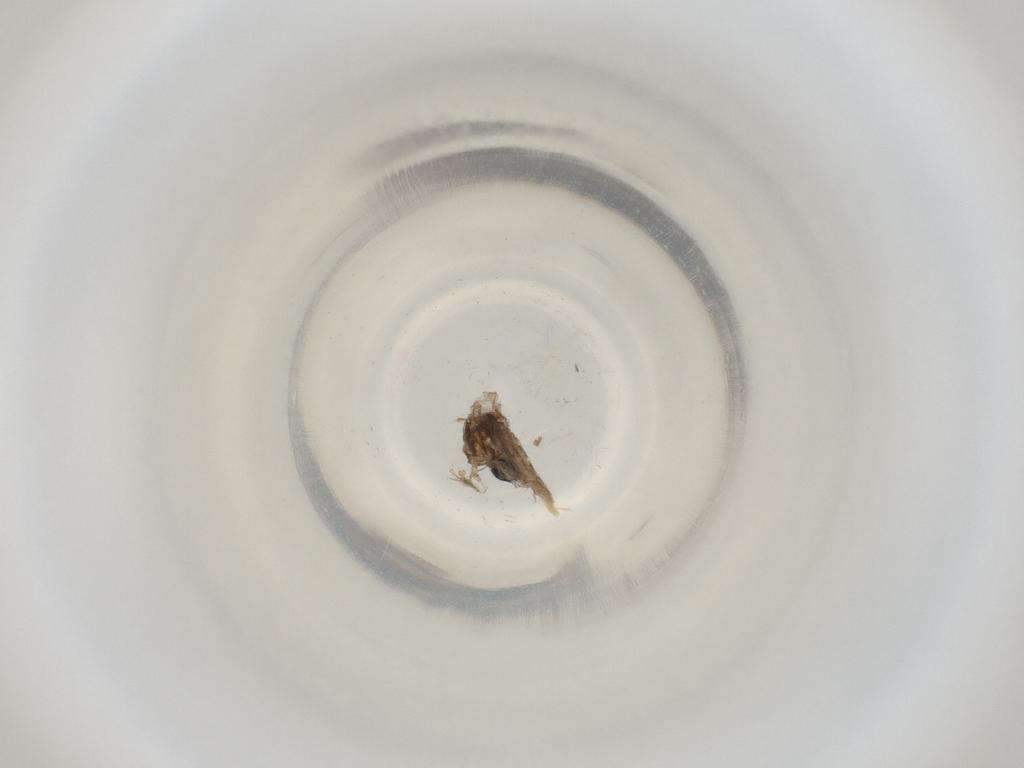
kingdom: Animalia
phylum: Arthropoda
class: Insecta
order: Diptera
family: Cecidomyiidae
